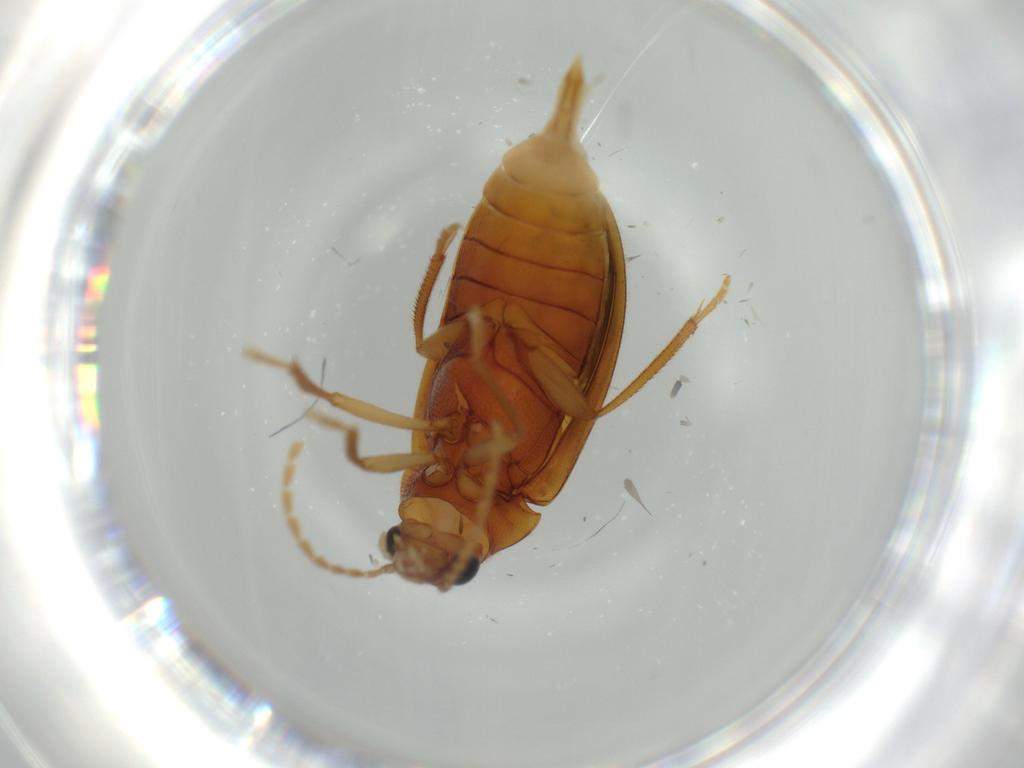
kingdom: Animalia
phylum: Arthropoda
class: Insecta
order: Coleoptera
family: Ptilodactylidae
